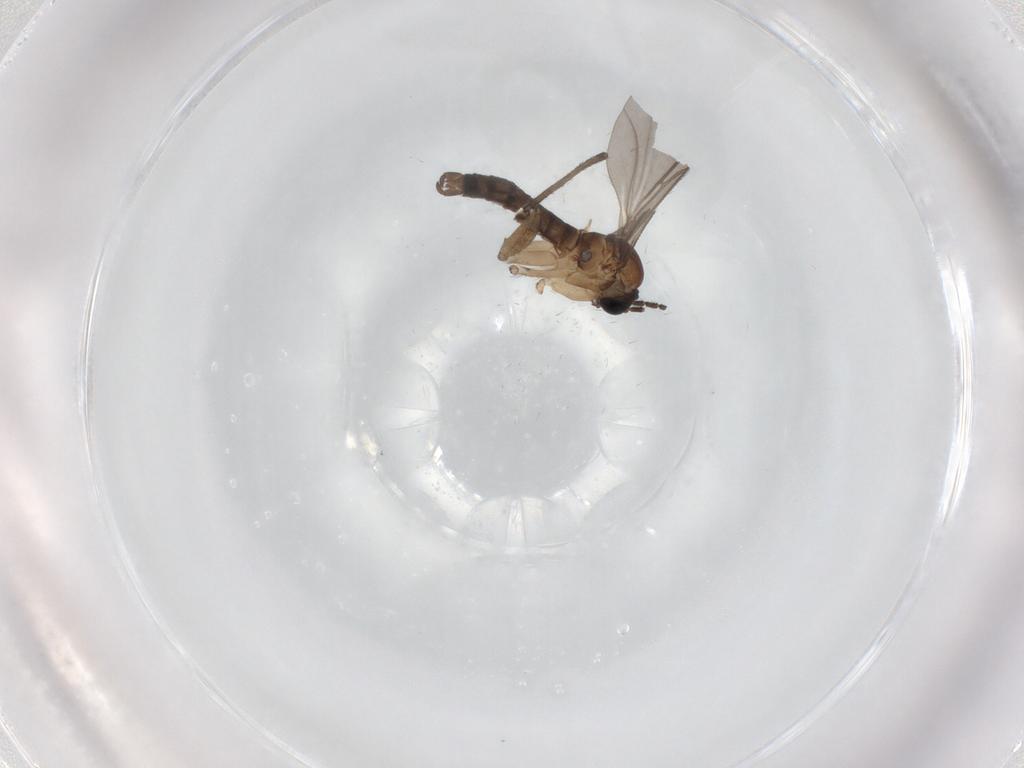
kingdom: Animalia
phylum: Arthropoda
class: Insecta
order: Diptera
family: Sciaridae
